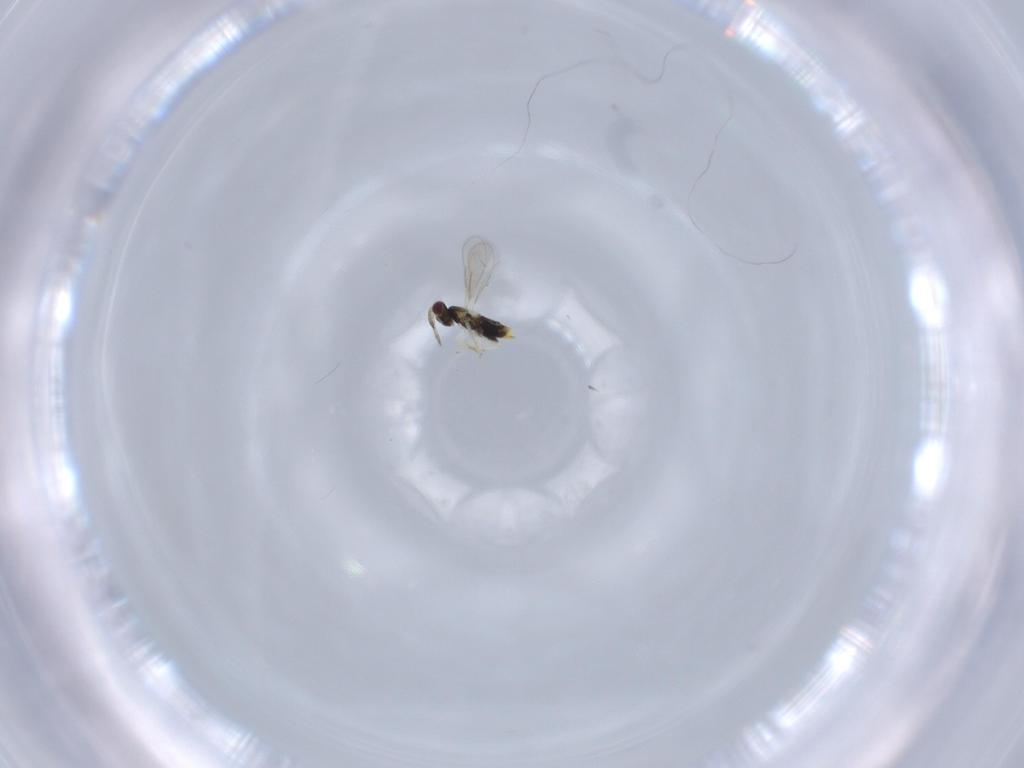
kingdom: Animalia
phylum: Arthropoda
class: Insecta
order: Hymenoptera
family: Aphelinidae
